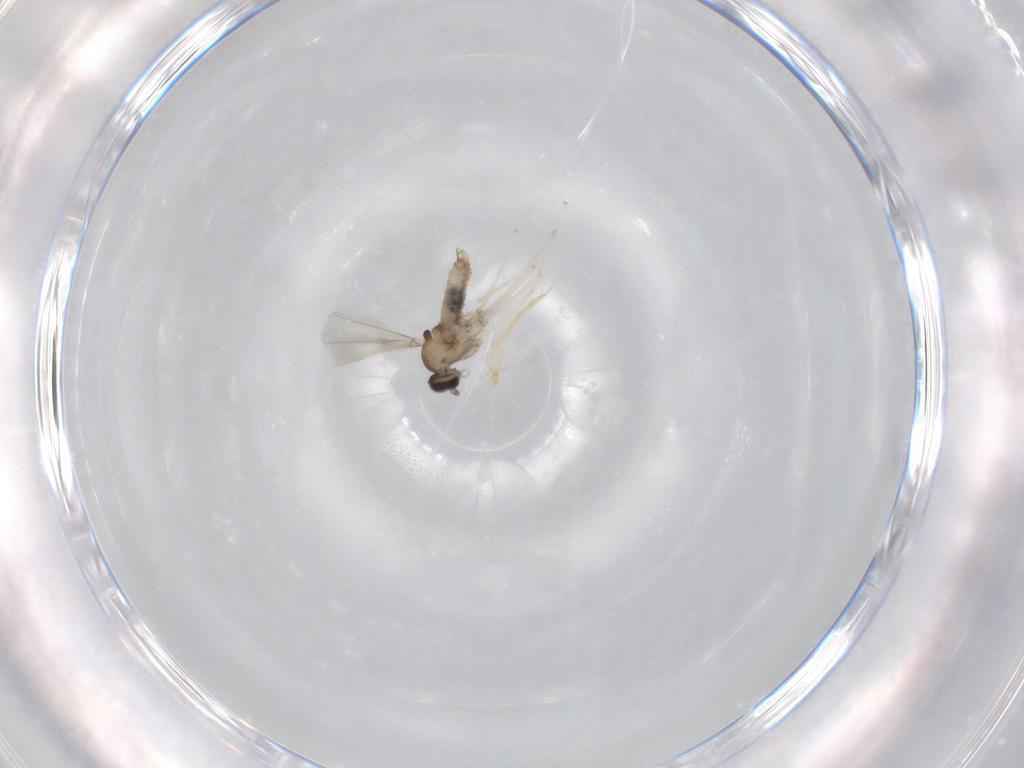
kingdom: Animalia
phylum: Arthropoda
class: Insecta
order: Diptera
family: Cecidomyiidae
